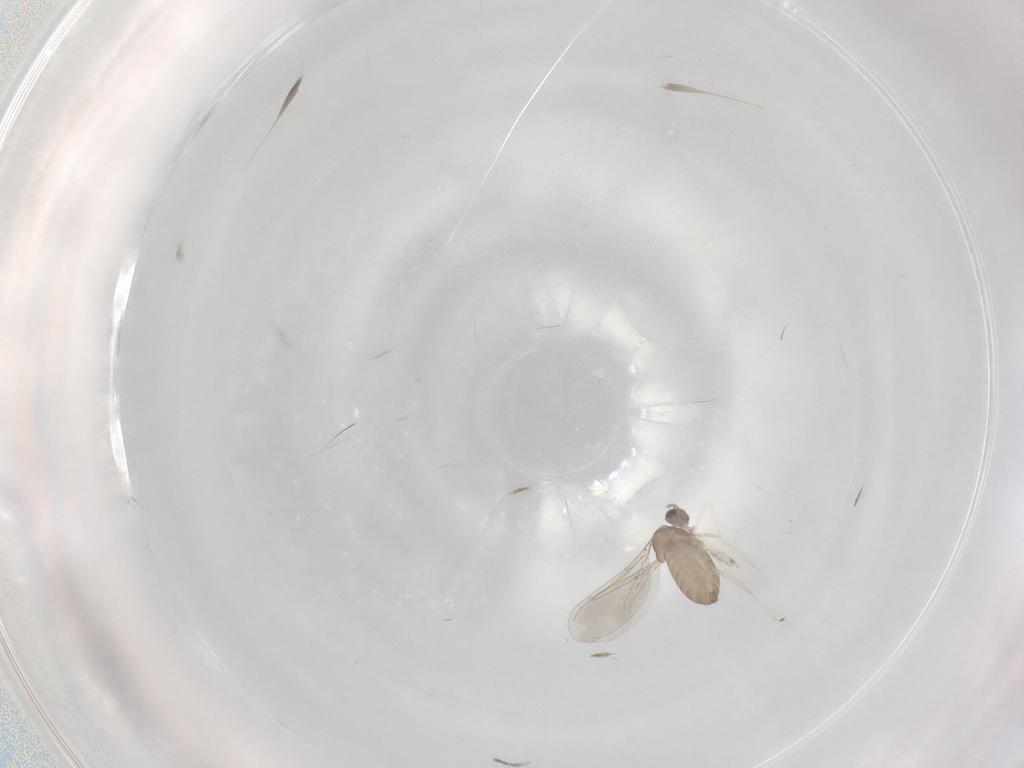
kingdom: Animalia
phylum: Arthropoda
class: Insecta
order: Diptera
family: Cecidomyiidae
